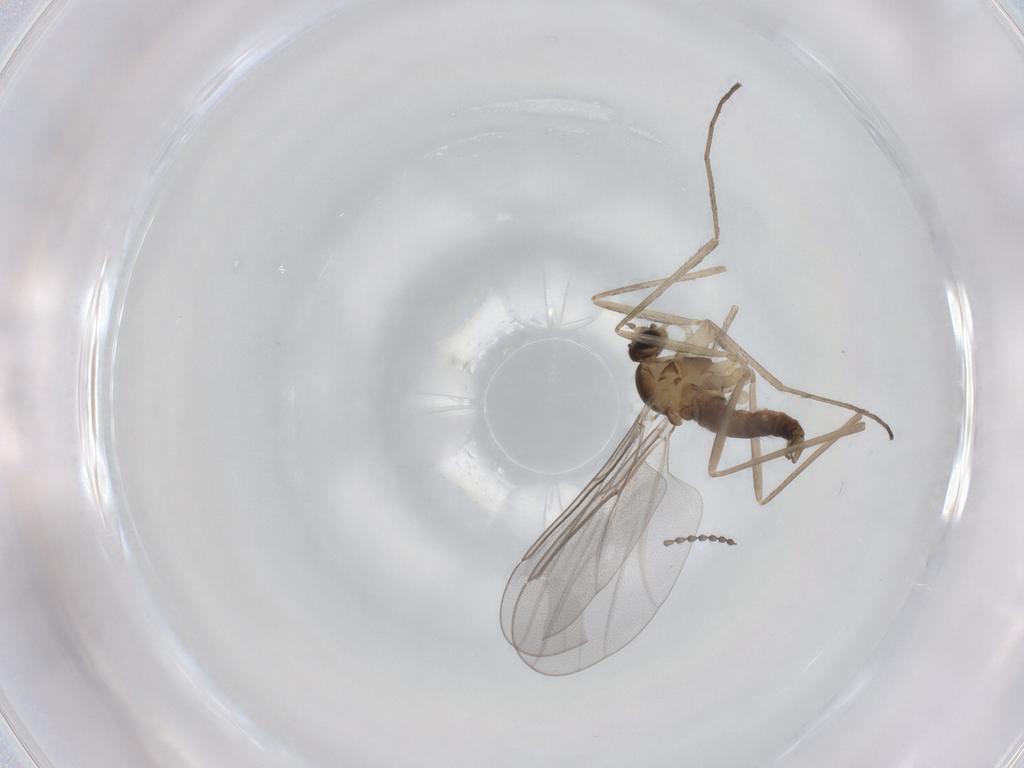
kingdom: Animalia
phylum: Arthropoda
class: Insecta
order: Diptera
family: Cecidomyiidae
